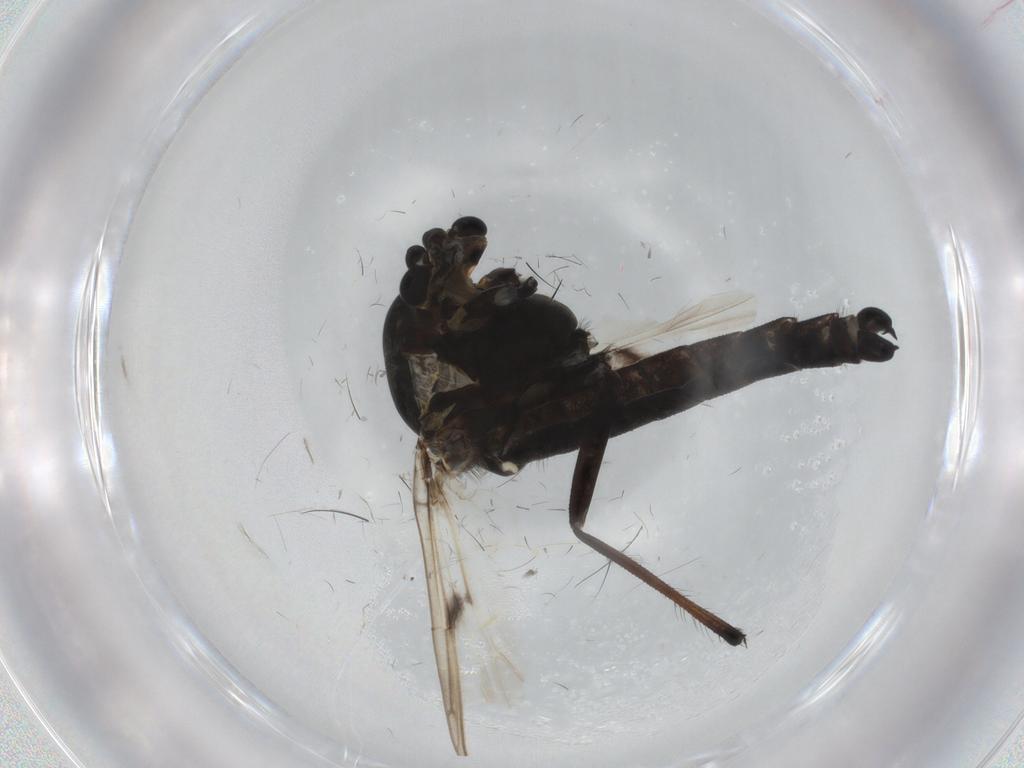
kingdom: Animalia
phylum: Arthropoda
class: Insecta
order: Diptera
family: Chironomidae
